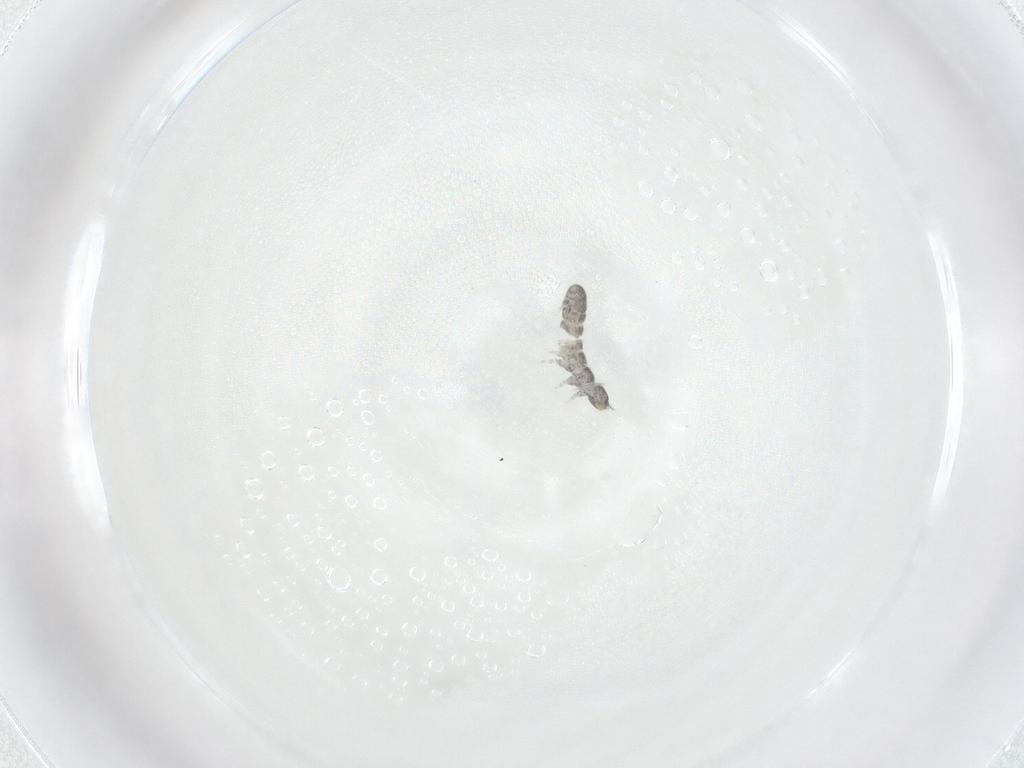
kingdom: Animalia
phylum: Arthropoda
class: Collembola
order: Entomobryomorpha
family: Isotomidae
